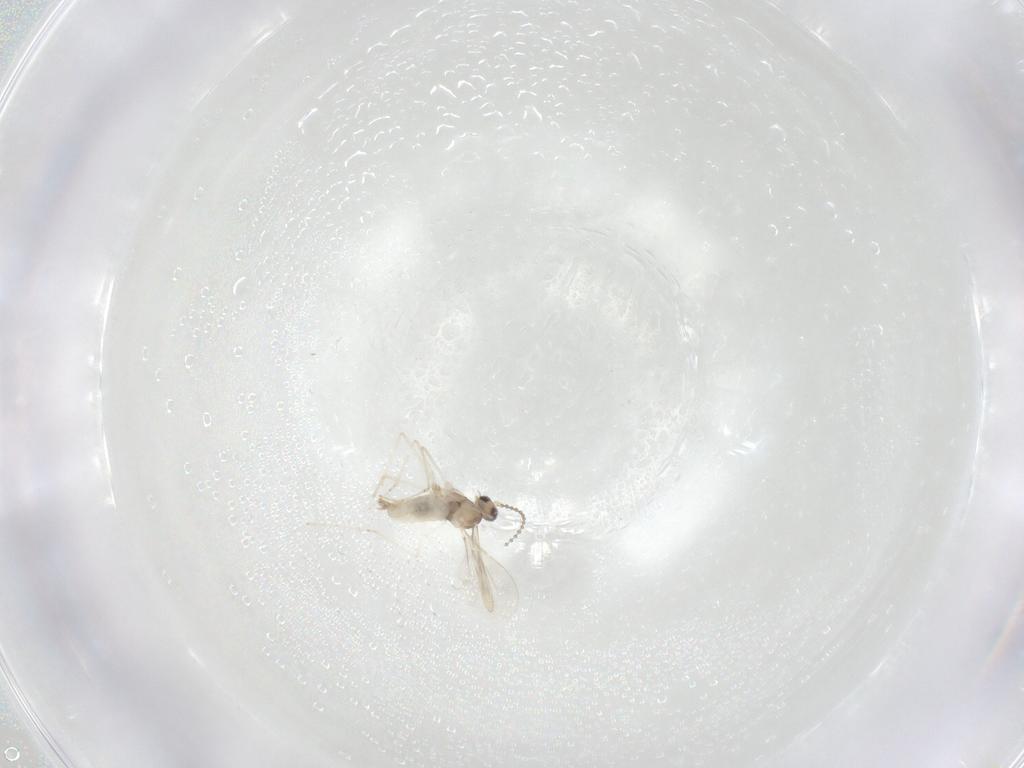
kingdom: Animalia
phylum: Arthropoda
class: Insecta
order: Diptera
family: Cecidomyiidae
